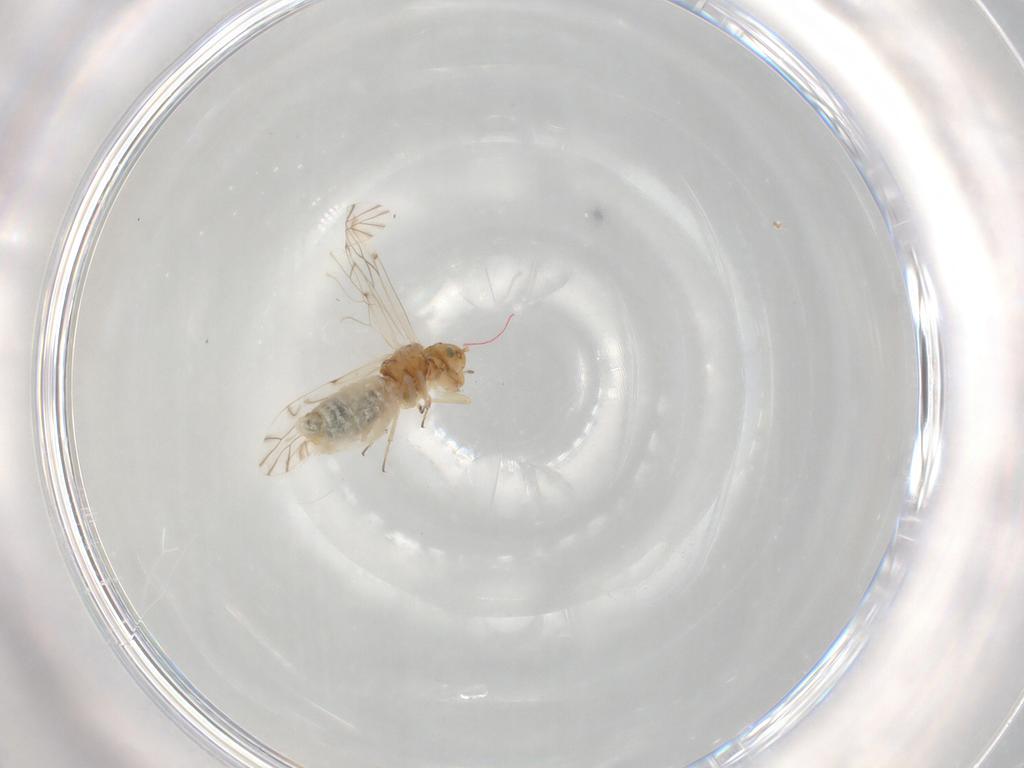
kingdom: Animalia
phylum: Arthropoda
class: Insecta
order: Psocodea
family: Lachesillidae
